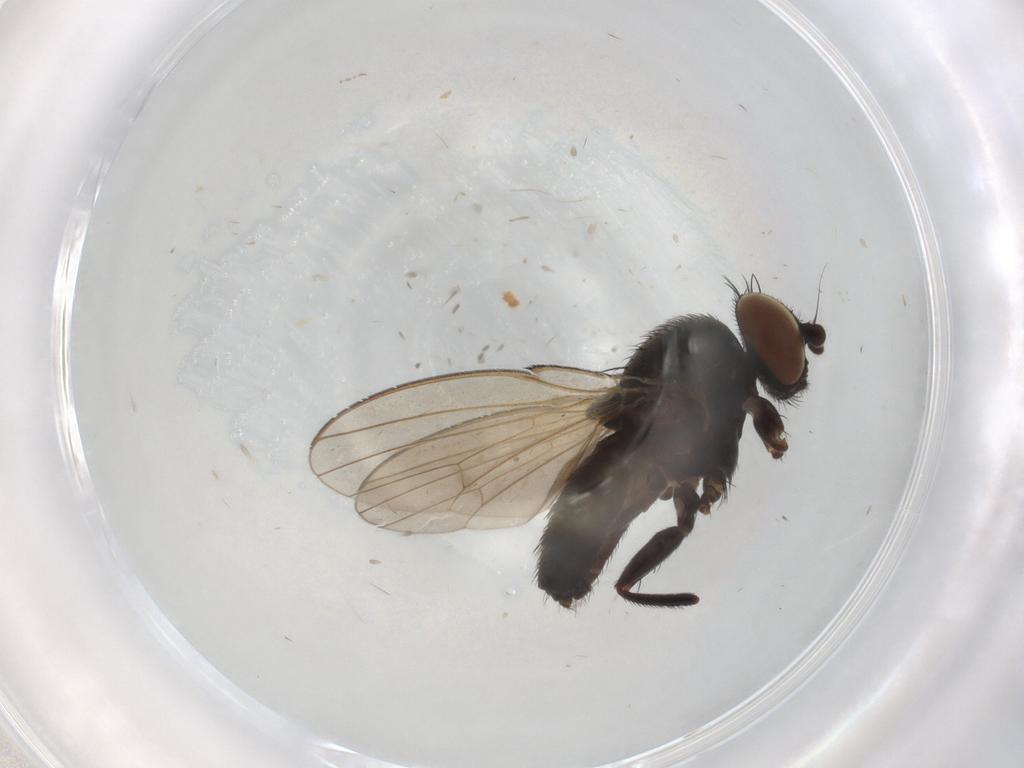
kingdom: Animalia
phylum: Arthropoda
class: Insecta
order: Diptera
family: Milichiidae
